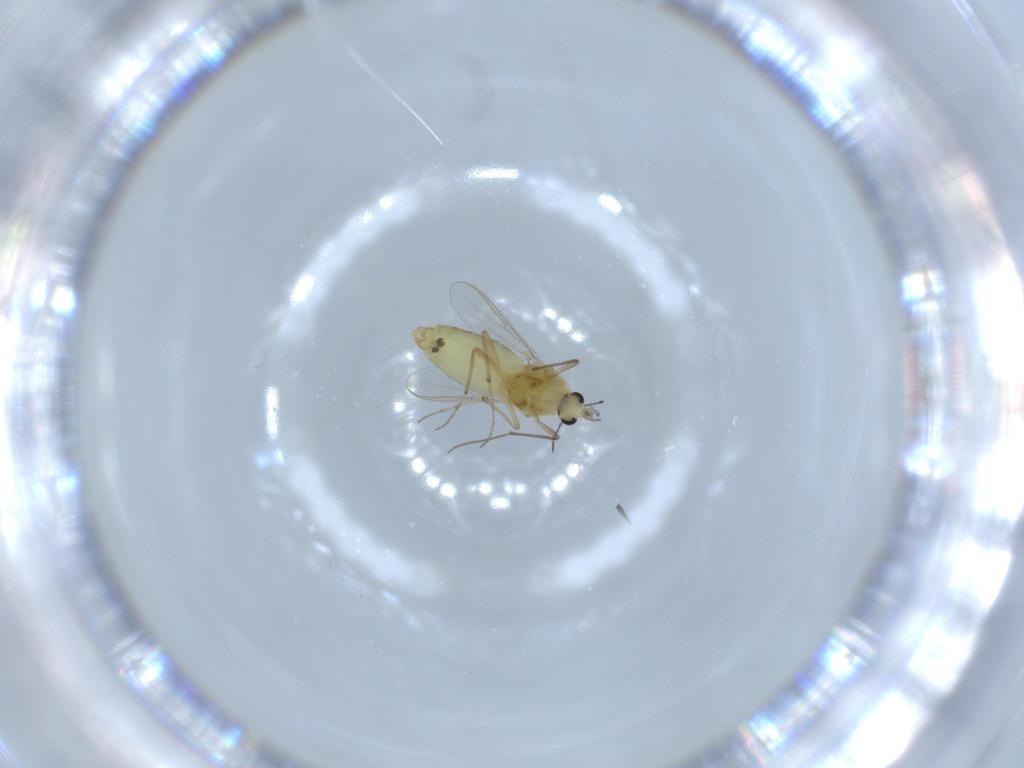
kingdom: Animalia
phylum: Arthropoda
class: Insecta
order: Diptera
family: Chironomidae
